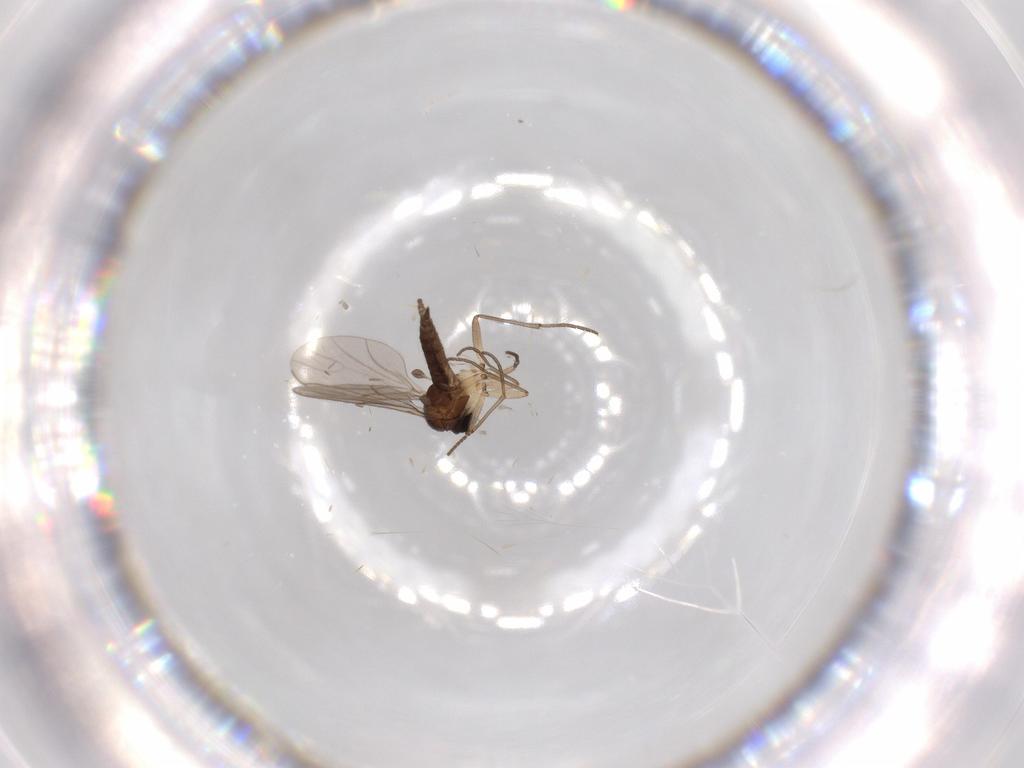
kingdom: Animalia
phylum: Arthropoda
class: Insecta
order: Diptera
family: Sciaridae
